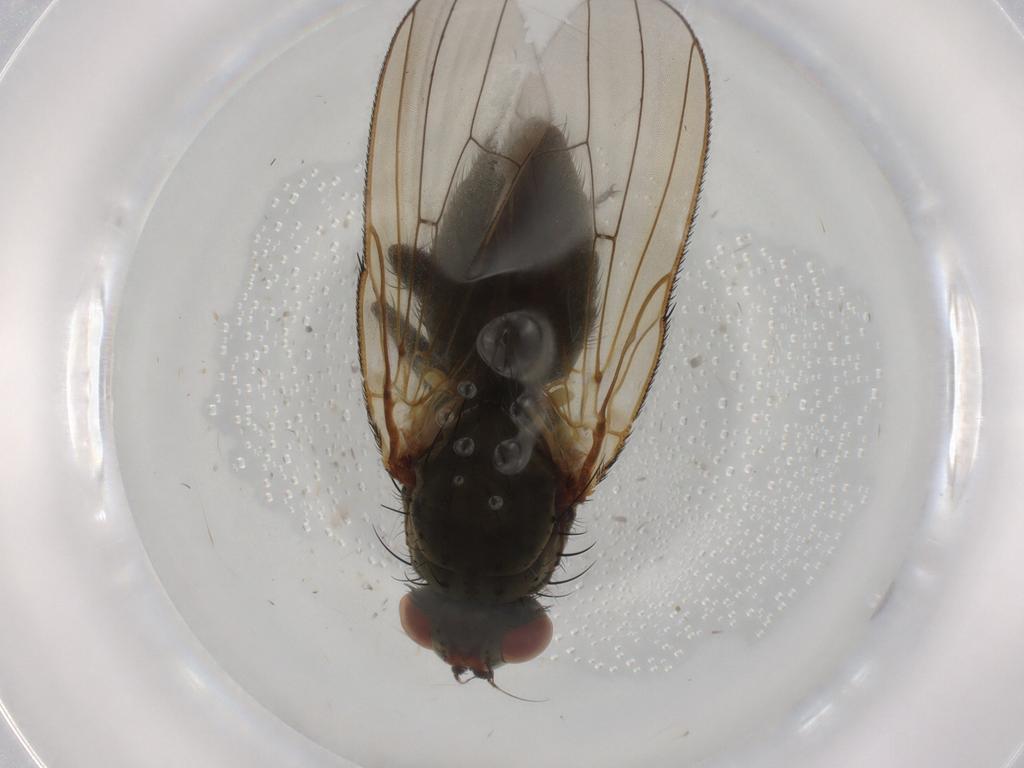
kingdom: Animalia
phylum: Arthropoda
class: Insecta
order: Diptera
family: Anthomyiidae
